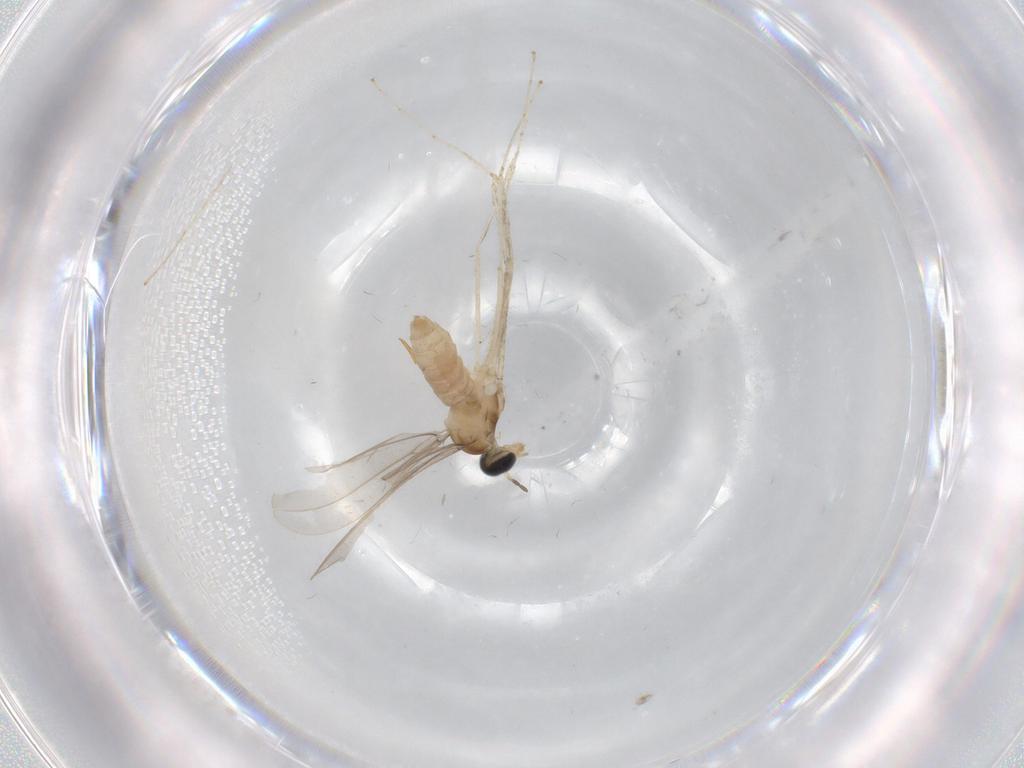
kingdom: Animalia
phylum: Arthropoda
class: Insecta
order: Diptera
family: Cecidomyiidae
